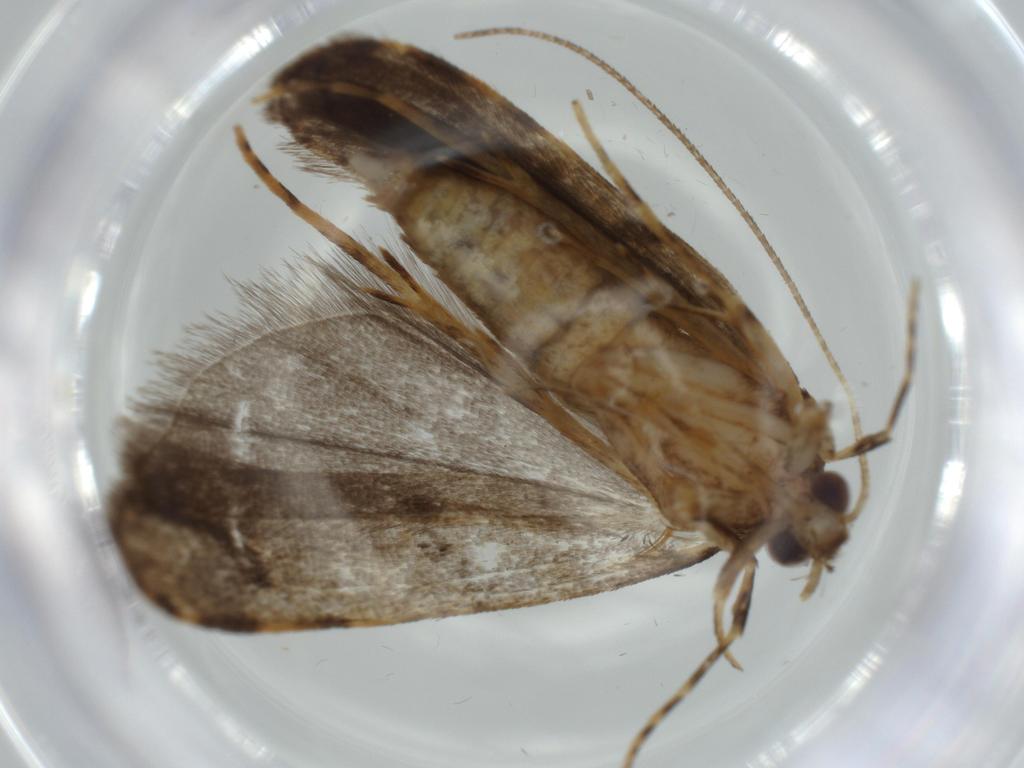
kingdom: Animalia
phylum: Arthropoda
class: Insecta
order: Lepidoptera
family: Autostichidae
